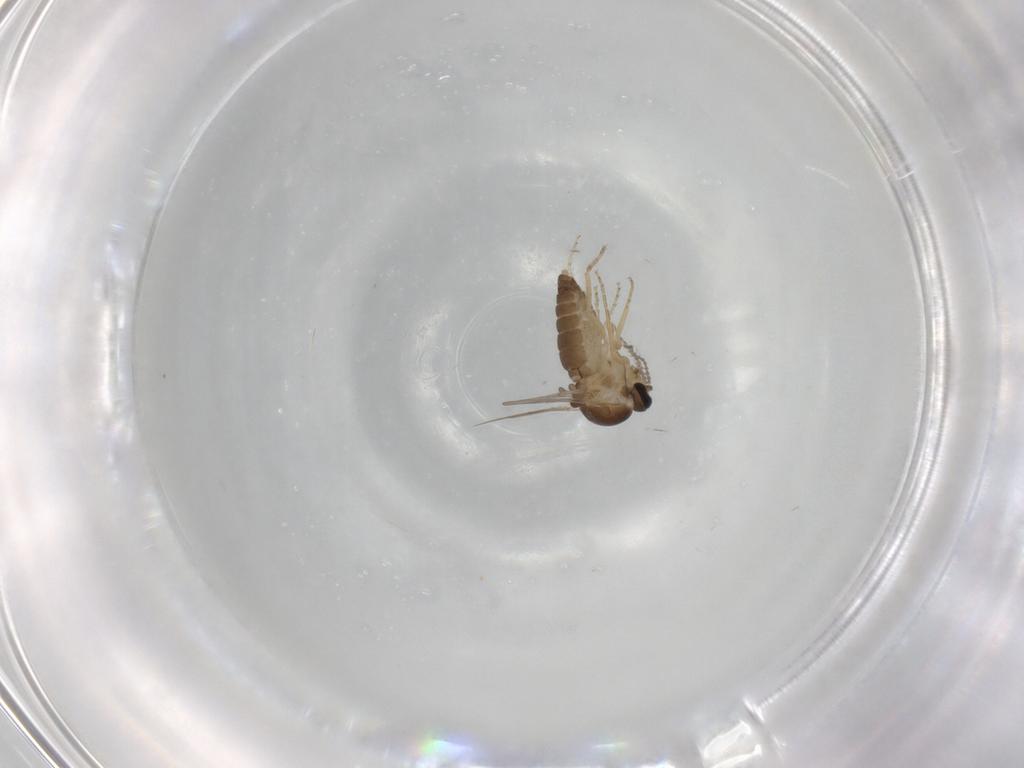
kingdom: Animalia
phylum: Arthropoda
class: Insecta
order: Diptera
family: Ceratopogonidae
